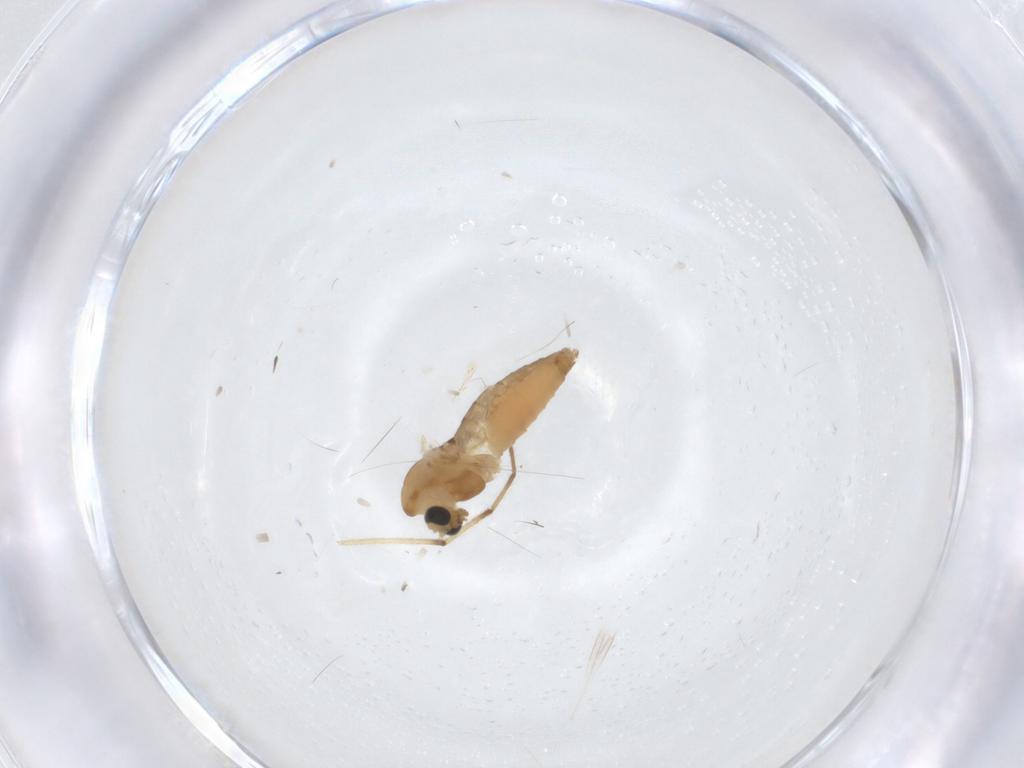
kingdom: Animalia
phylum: Arthropoda
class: Insecta
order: Diptera
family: Chironomidae
